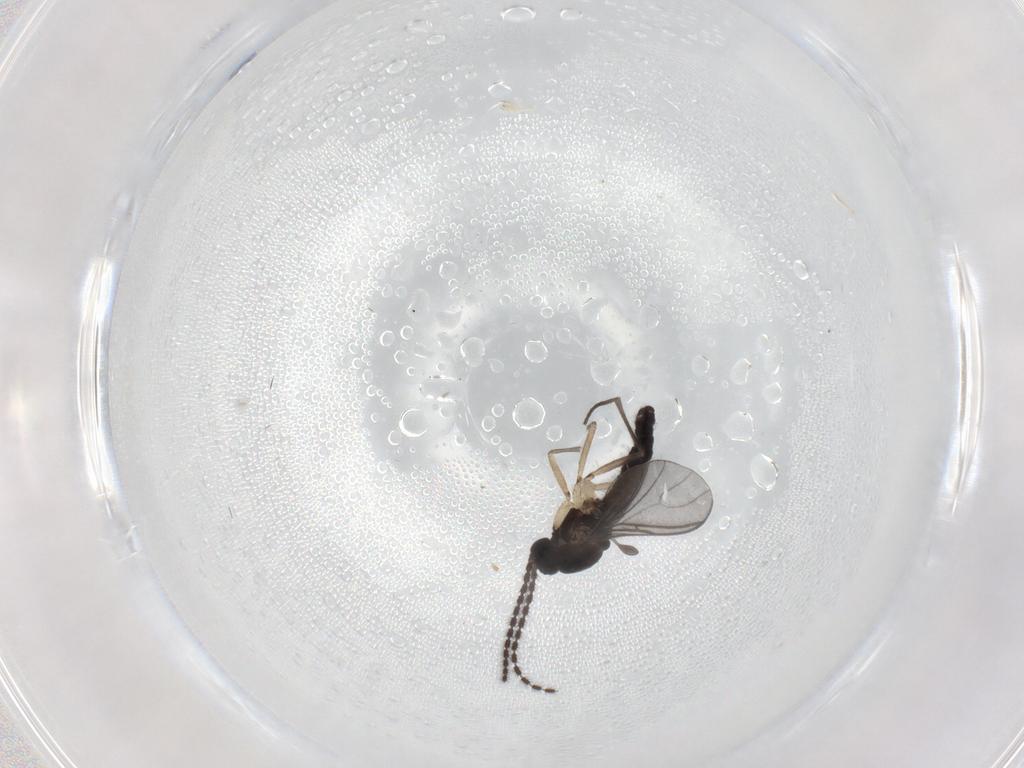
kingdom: Animalia
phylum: Arthropoda
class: Insecta
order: Diptera
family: Sciaridae
